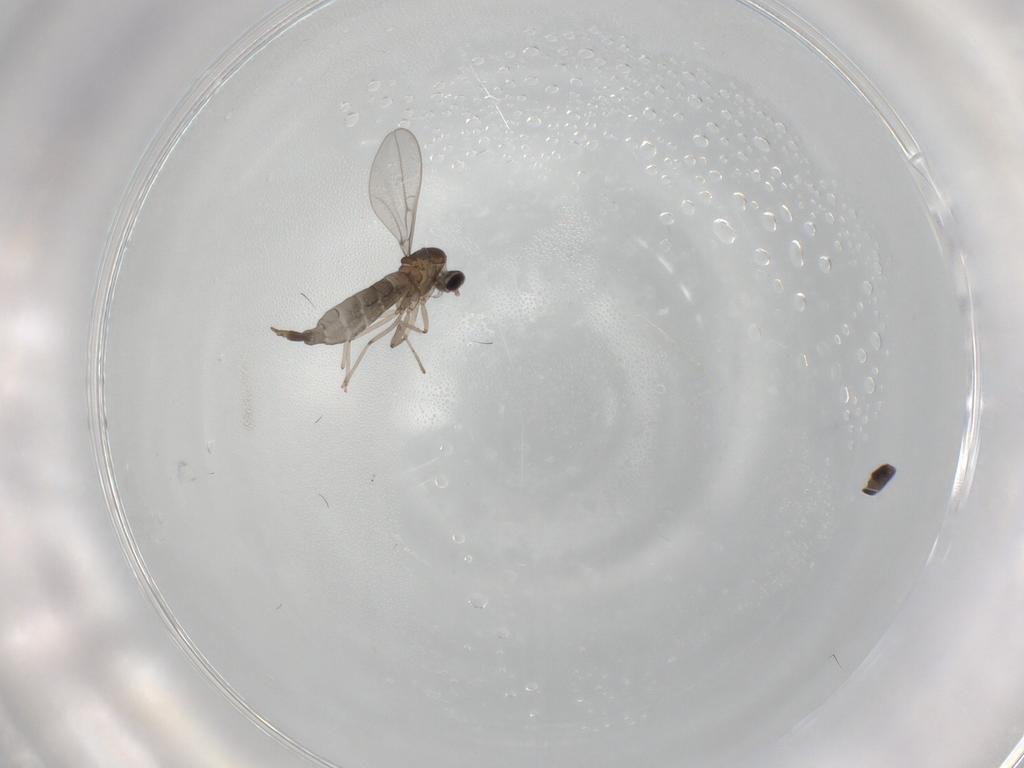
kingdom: Animalia
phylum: Arthropoda
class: Insecta
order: Diptera
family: Cecidomyiidae
